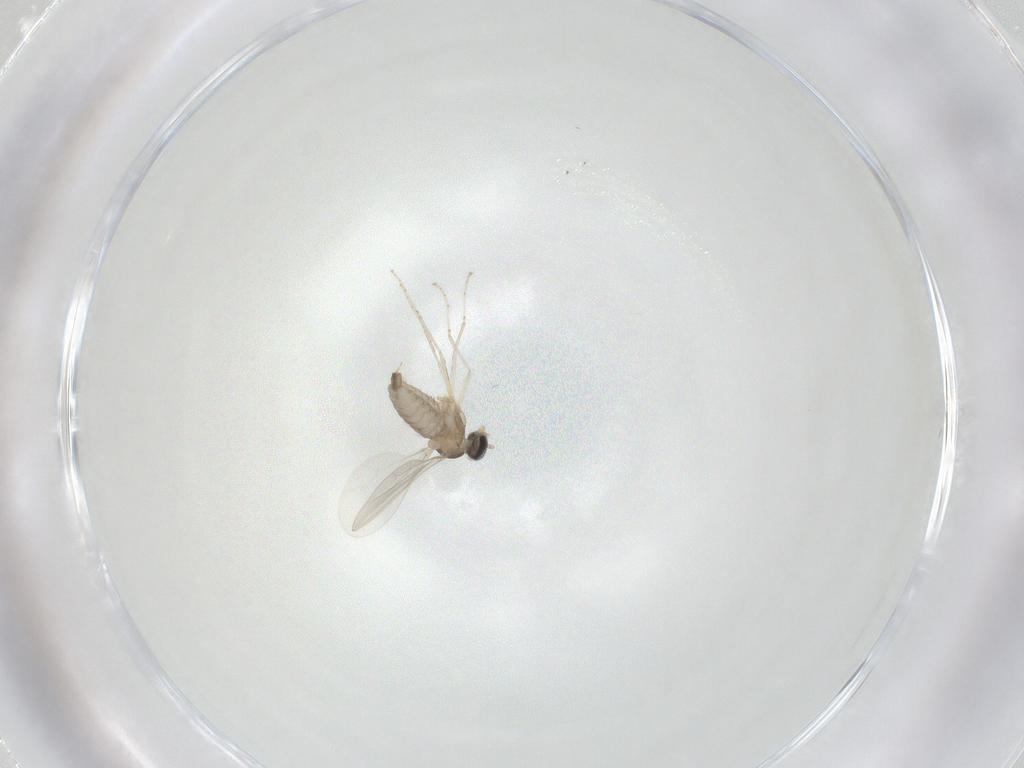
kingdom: Animalia
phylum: Arthropoda
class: Insecta
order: Diptera
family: Cecidomyiidae
